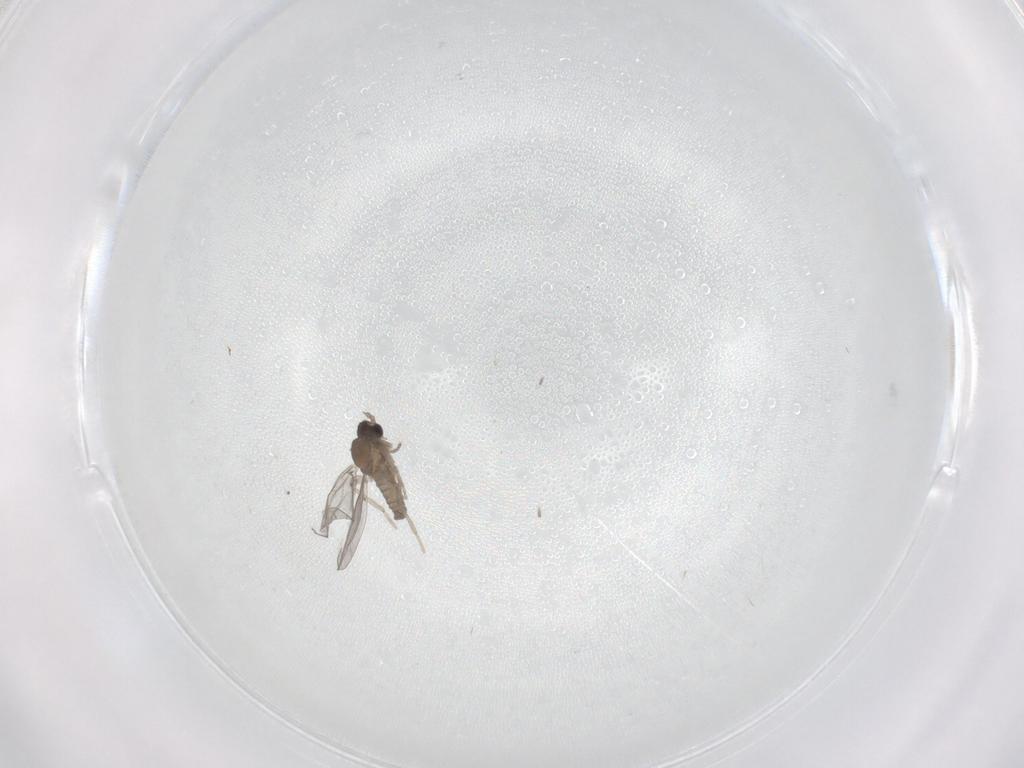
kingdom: Animalia
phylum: Arthropoda
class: Insecta
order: Diptera
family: Cecidomyiidae
